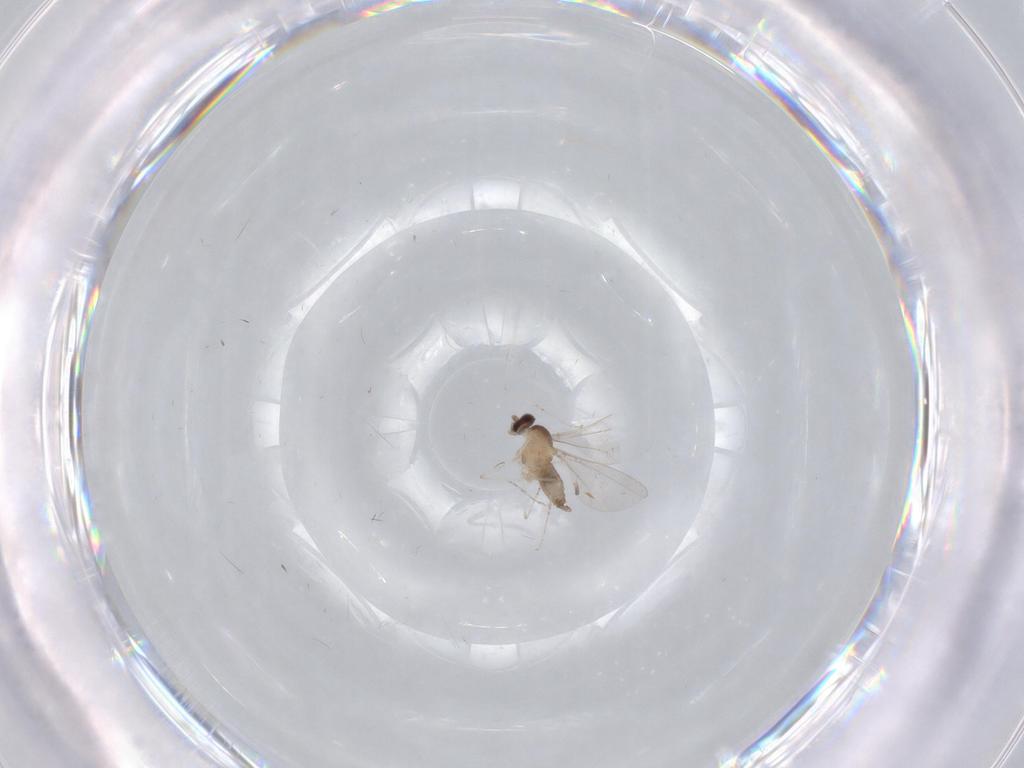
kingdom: Animalia
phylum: Arthropoda
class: Insecta
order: Diptera
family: Cecidomyiidae
